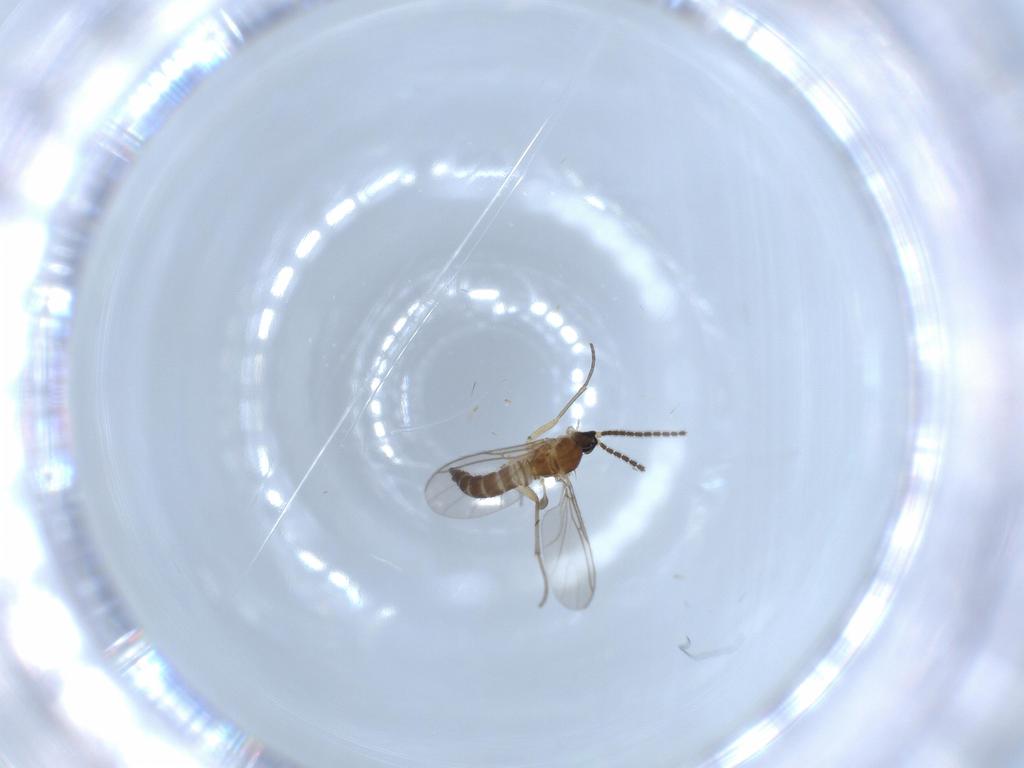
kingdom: Animalia
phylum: Arthropoda
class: Insecta
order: Diptera
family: Sciaridae
